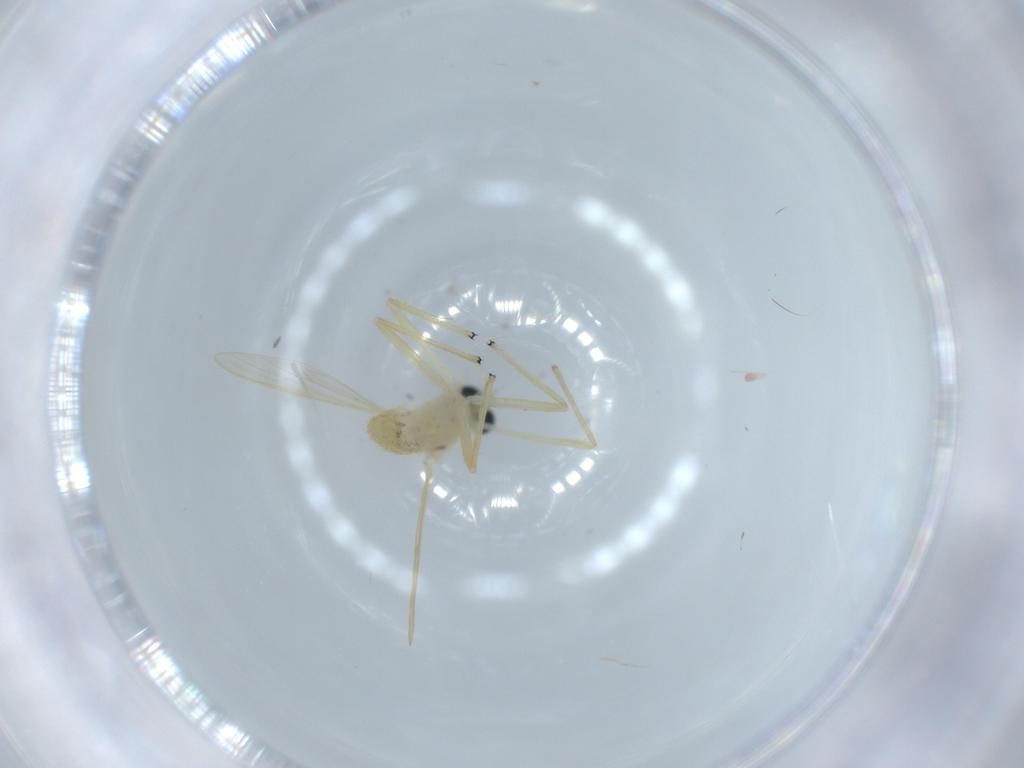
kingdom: Animalia
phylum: Arthropoda
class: Insecta
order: Diptera
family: Chironomidae
